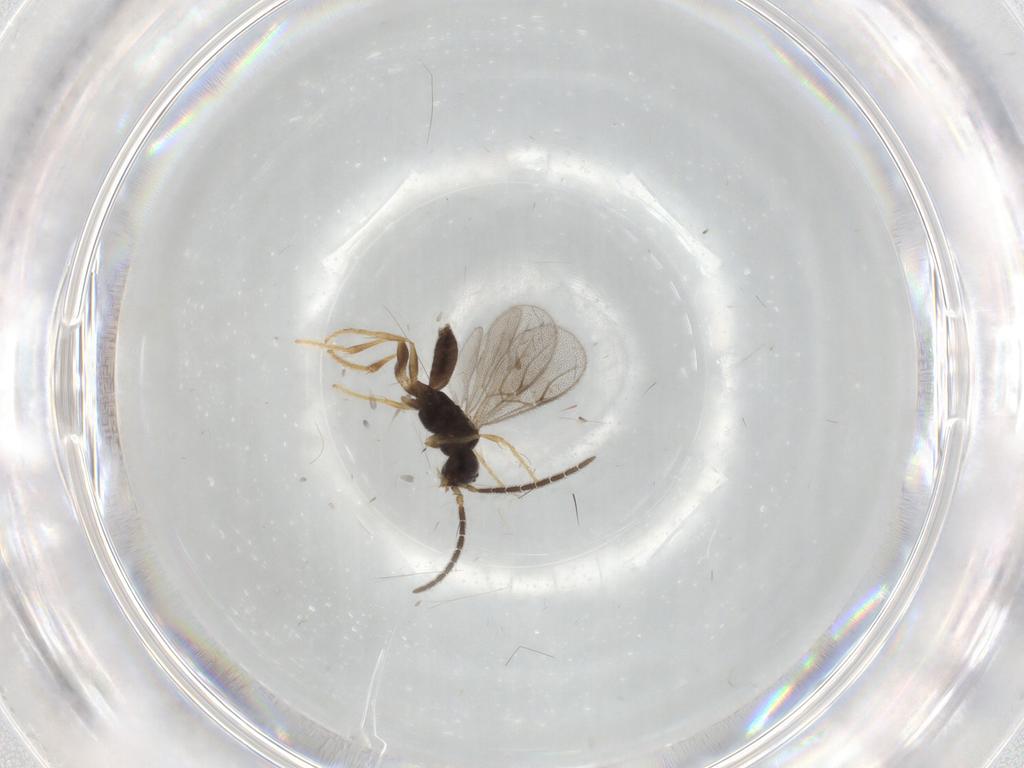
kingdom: Animalia
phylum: Arthropoda
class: Insecta
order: Hymenoptera
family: Dryinidae
